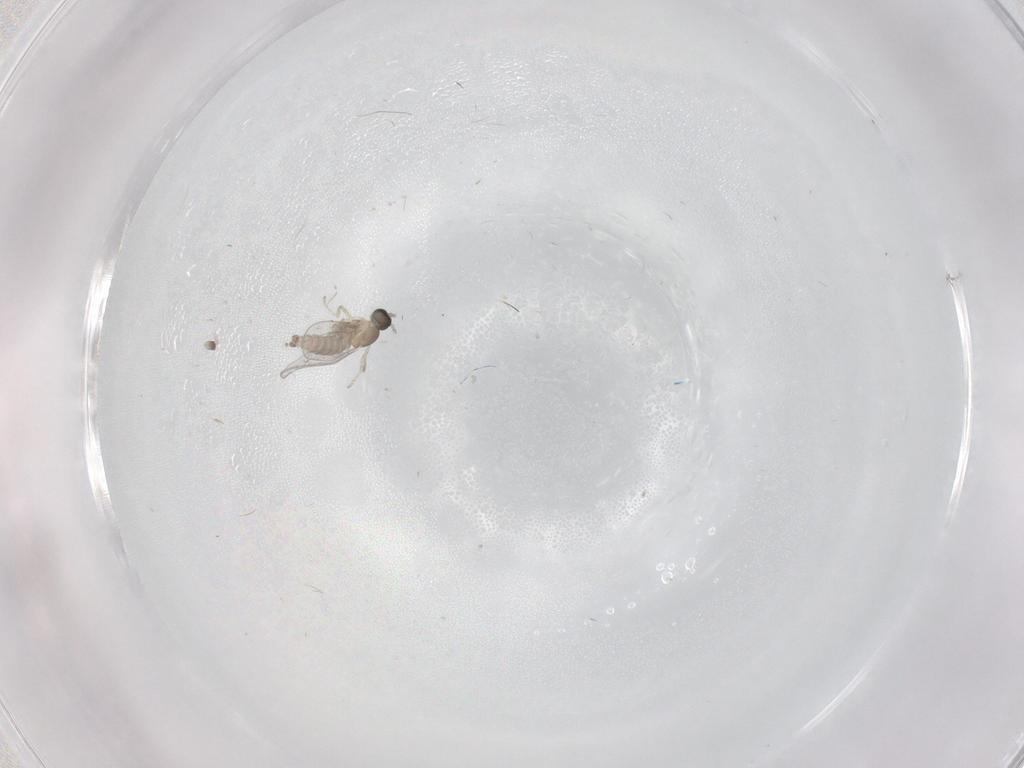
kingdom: Animalia
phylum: Arthropoda
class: Insecta
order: Diptera
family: Cecidomyiidae
